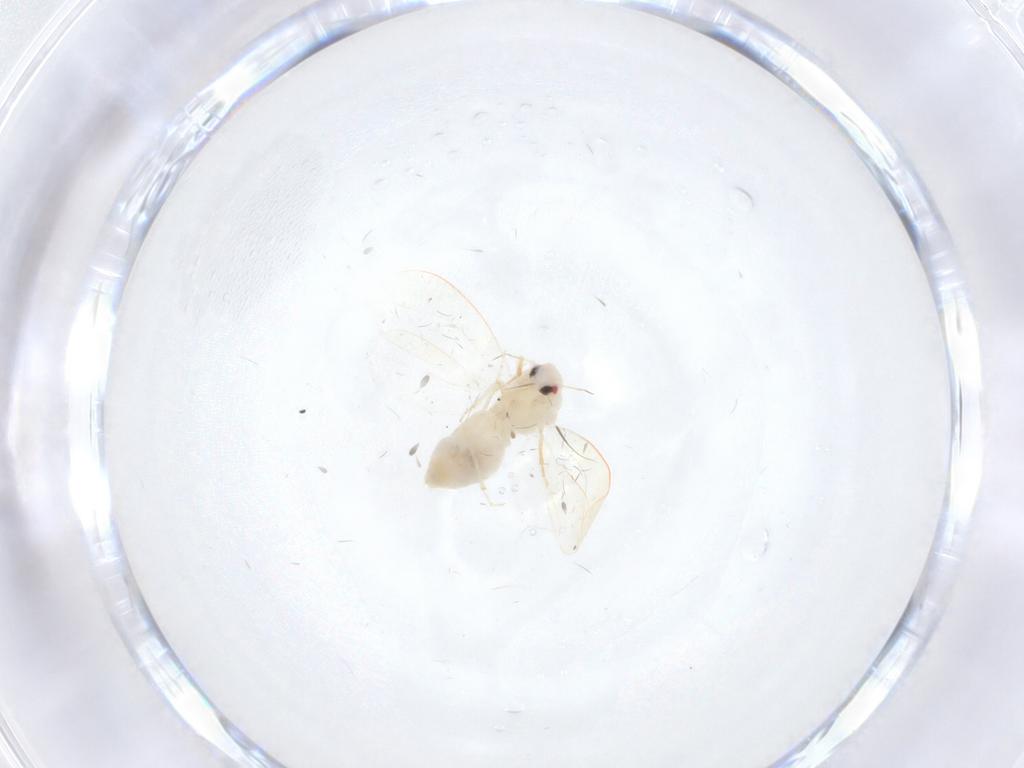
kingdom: Animalia
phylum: Arthropoda
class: Insecta
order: Hemiptera
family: Aleyrodidae
